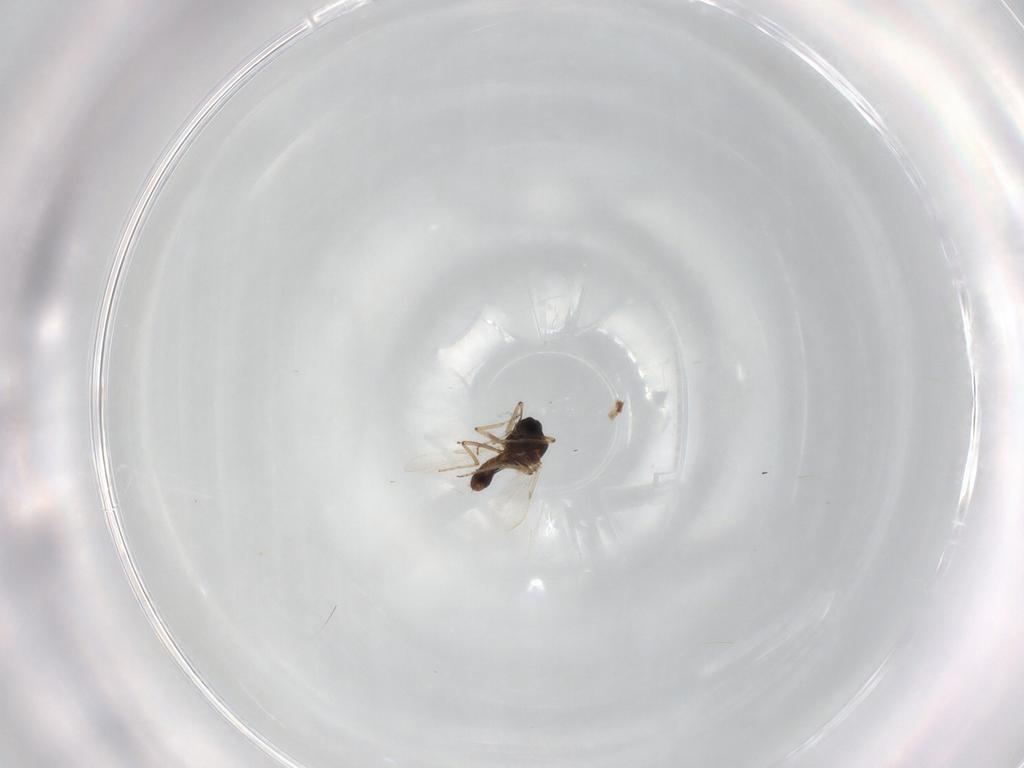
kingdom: Animalia
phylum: Arthropoda
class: Insecta
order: Diptera
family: Ceratopogonidae
